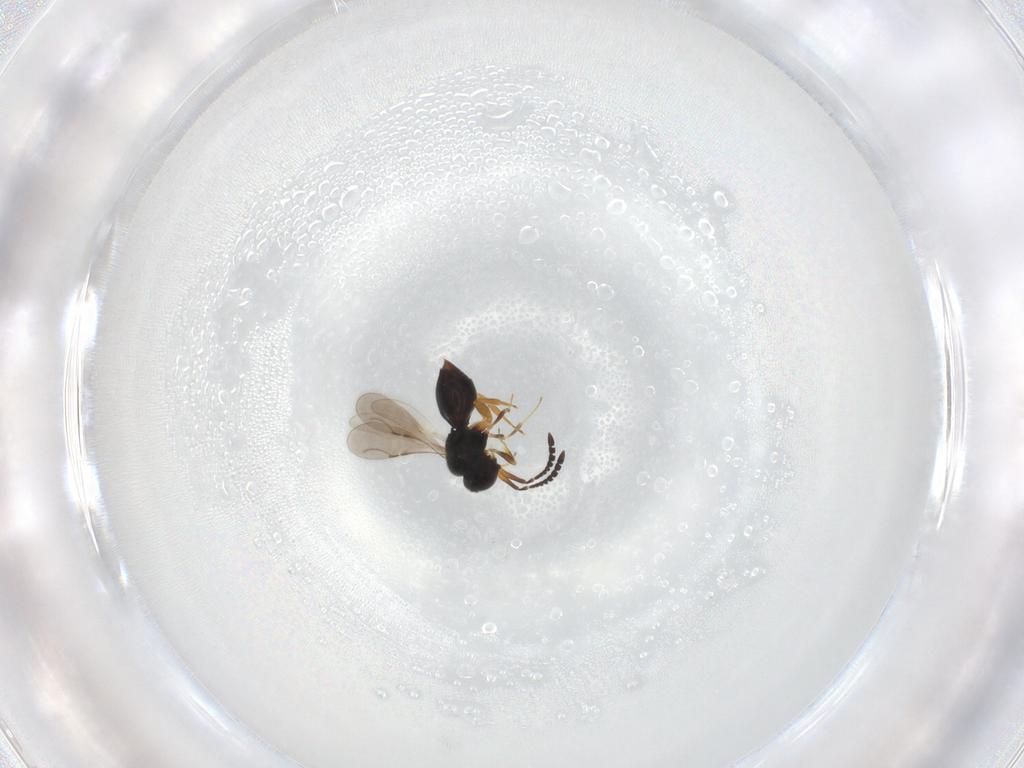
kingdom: Animalia
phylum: Arthropoda
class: Insecta
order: Hymenoptera
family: Ceraphronidae
